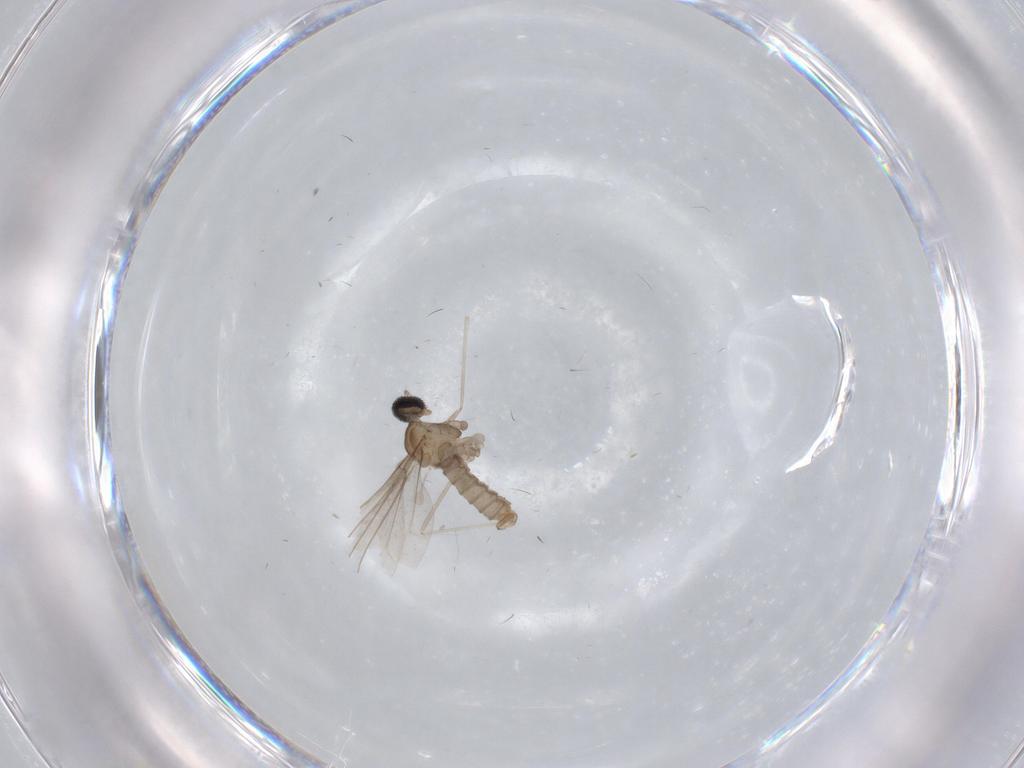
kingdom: Animalia
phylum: Arthropoda
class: Insecta
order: Diptera
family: Cecidomyiidae
